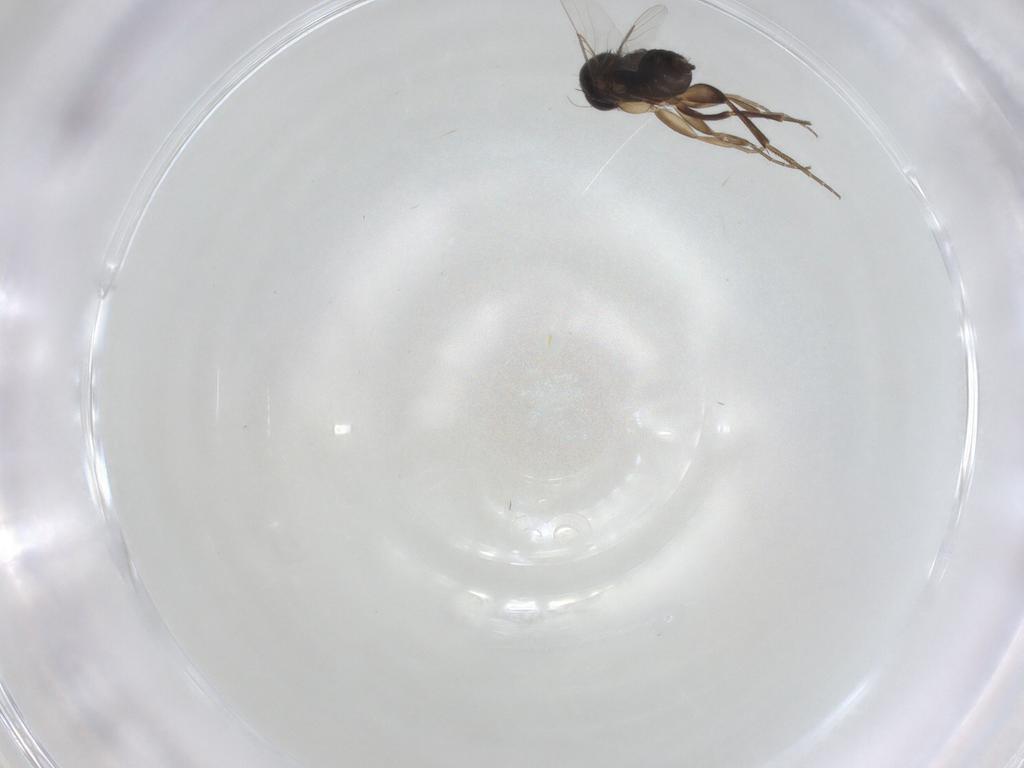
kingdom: Animalia
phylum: Arthropoda
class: Insecta
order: Diptera
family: Phoridae
